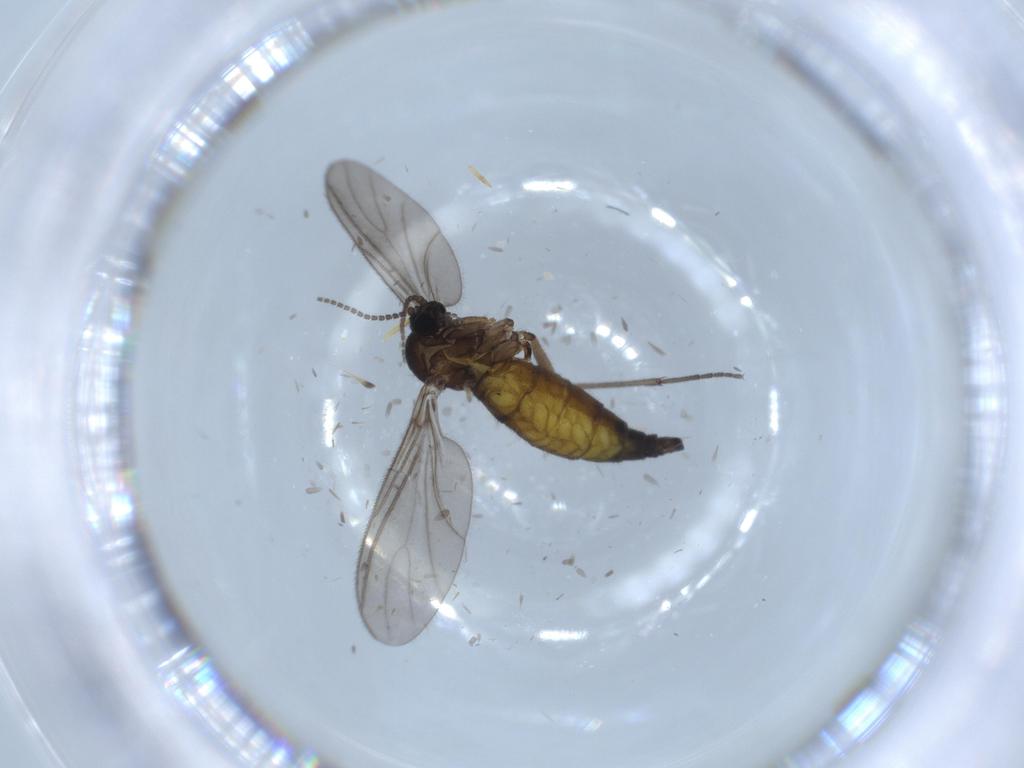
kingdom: Animalia
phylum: Arthropoda
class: Insecta
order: Diptera
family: Sciaridae
